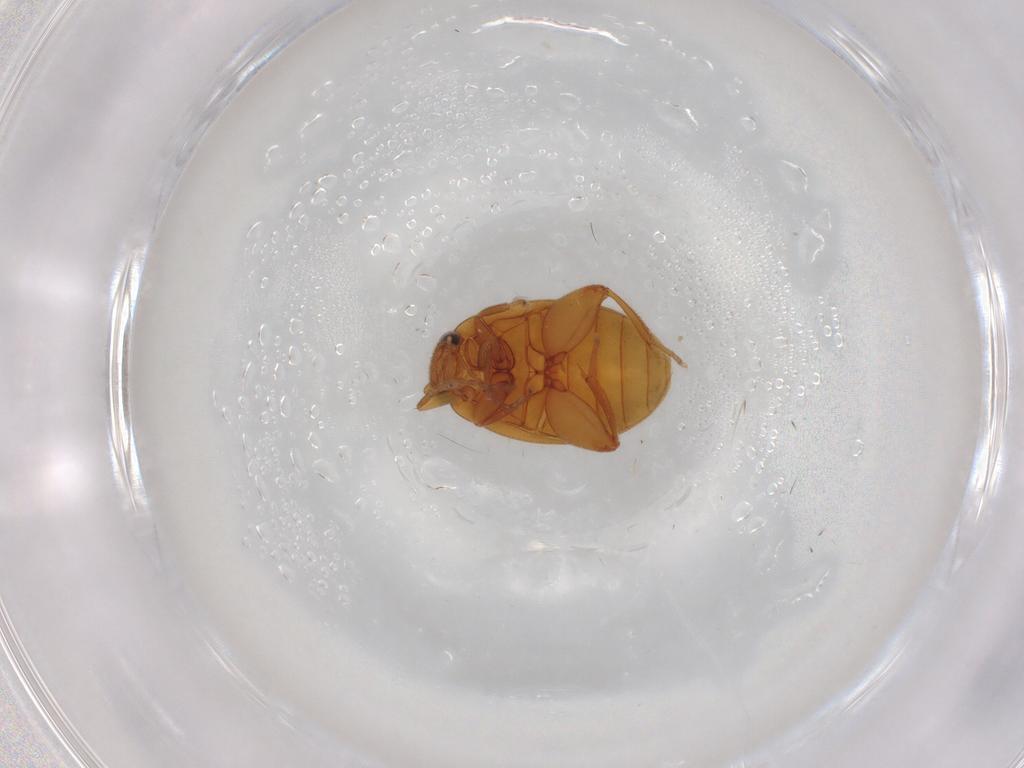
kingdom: Animalia
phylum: Arthropoda
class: Insecta
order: Coleoptera
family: Scirtidae
